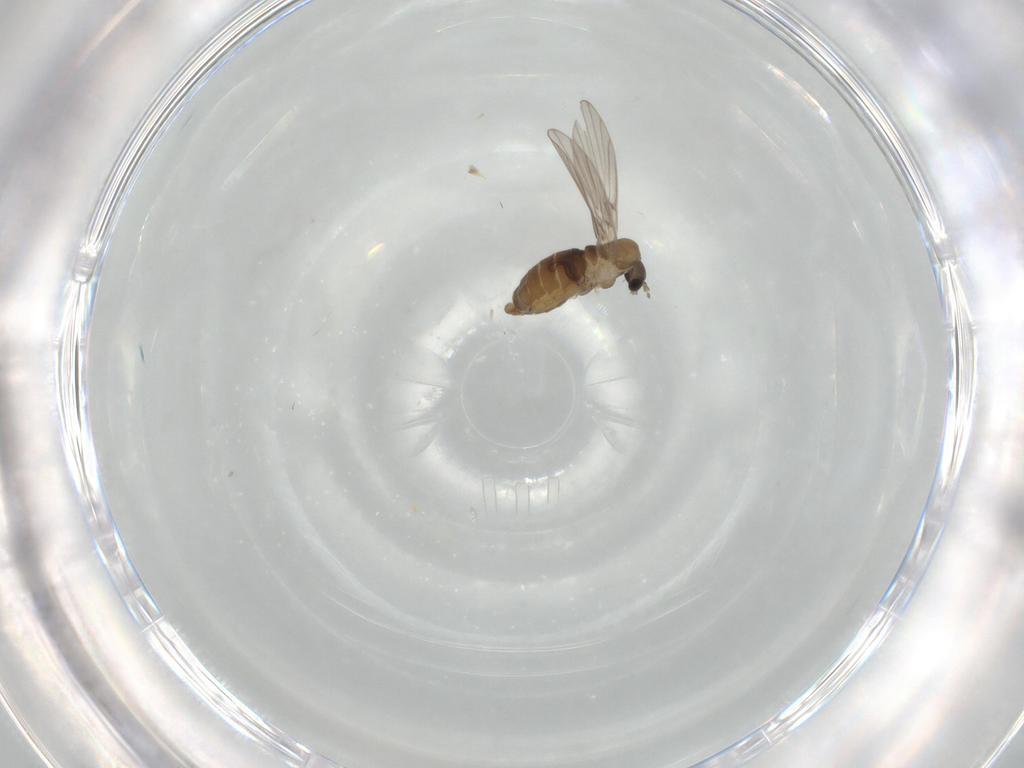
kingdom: Animalia
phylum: Arthropoda
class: Insecta
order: Diptera
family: Psychodidae
